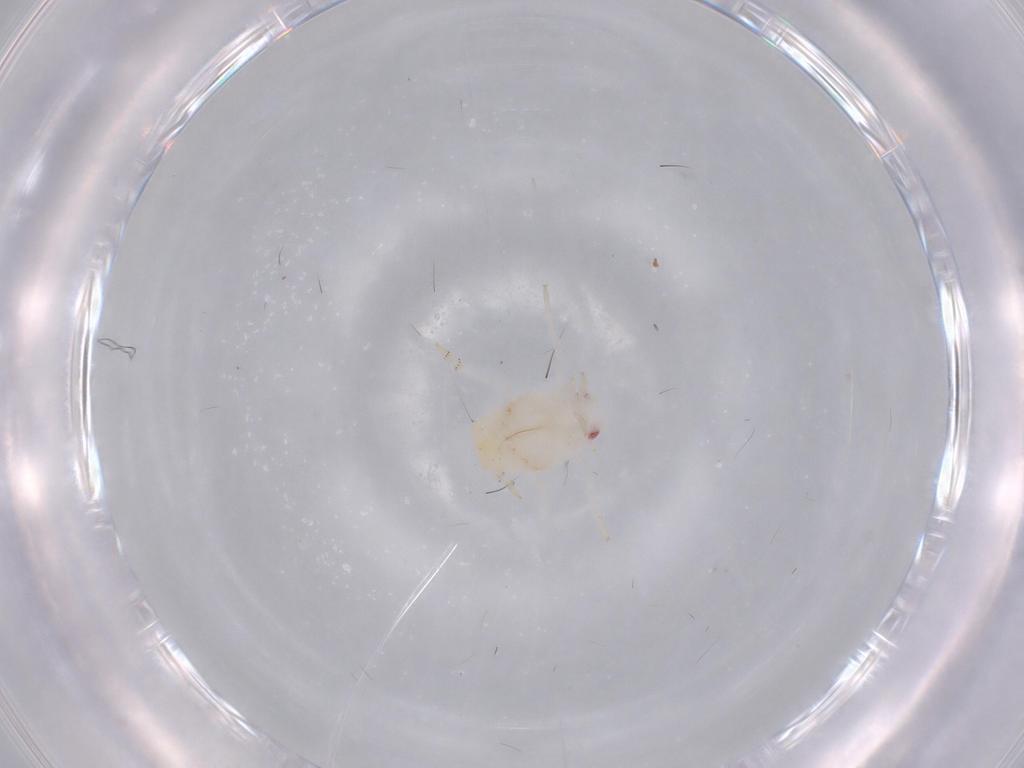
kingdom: Animalia
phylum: Arthropoda
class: Insecta
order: Hemiptera
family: Flatidae
